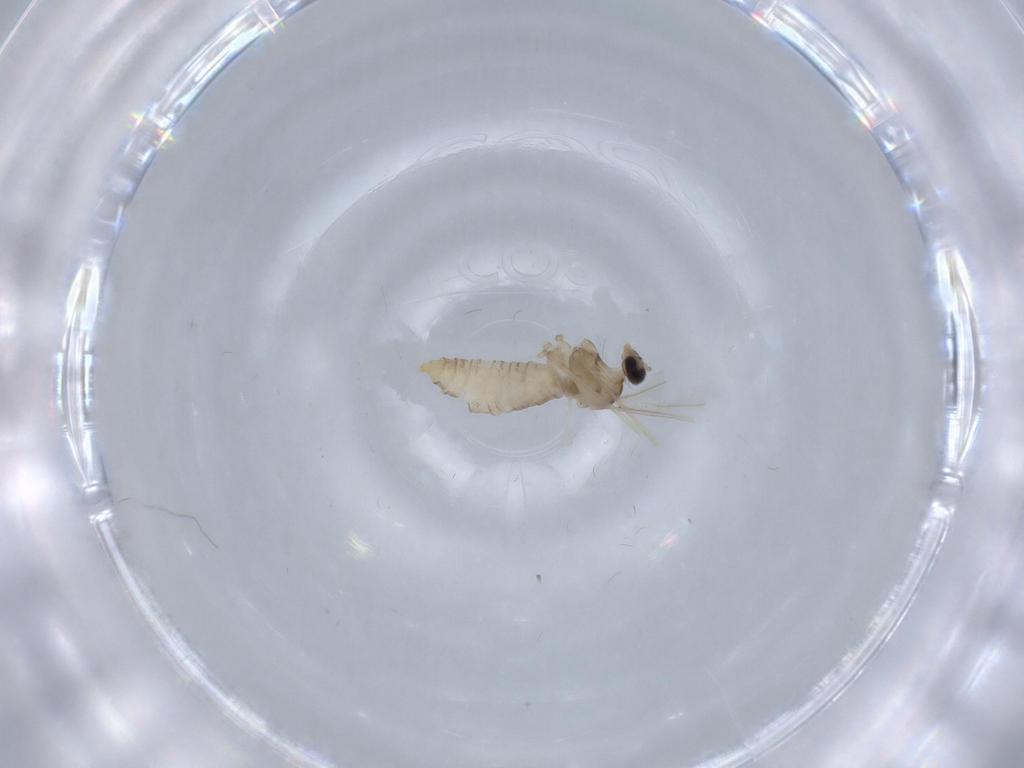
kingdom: Animalia
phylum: Arthropoda
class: Insecta
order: Diptera
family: Cecidomyiidae
